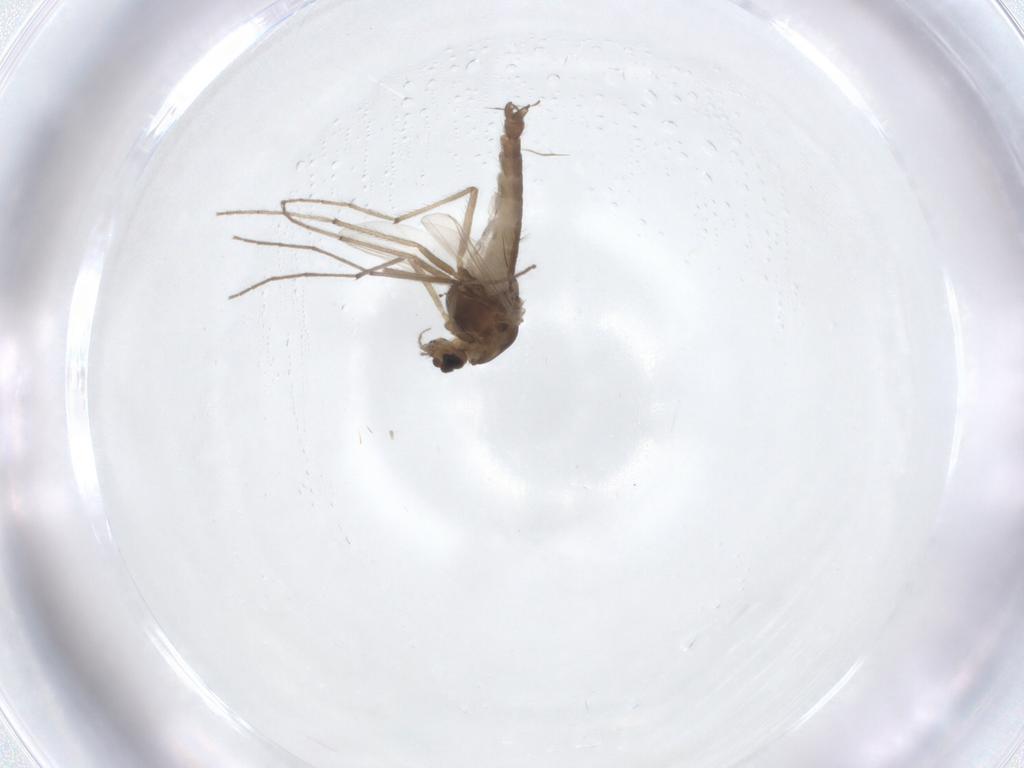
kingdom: Animalia
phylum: Arthropoda
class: Insecta
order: Diptera
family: Chironomidae
